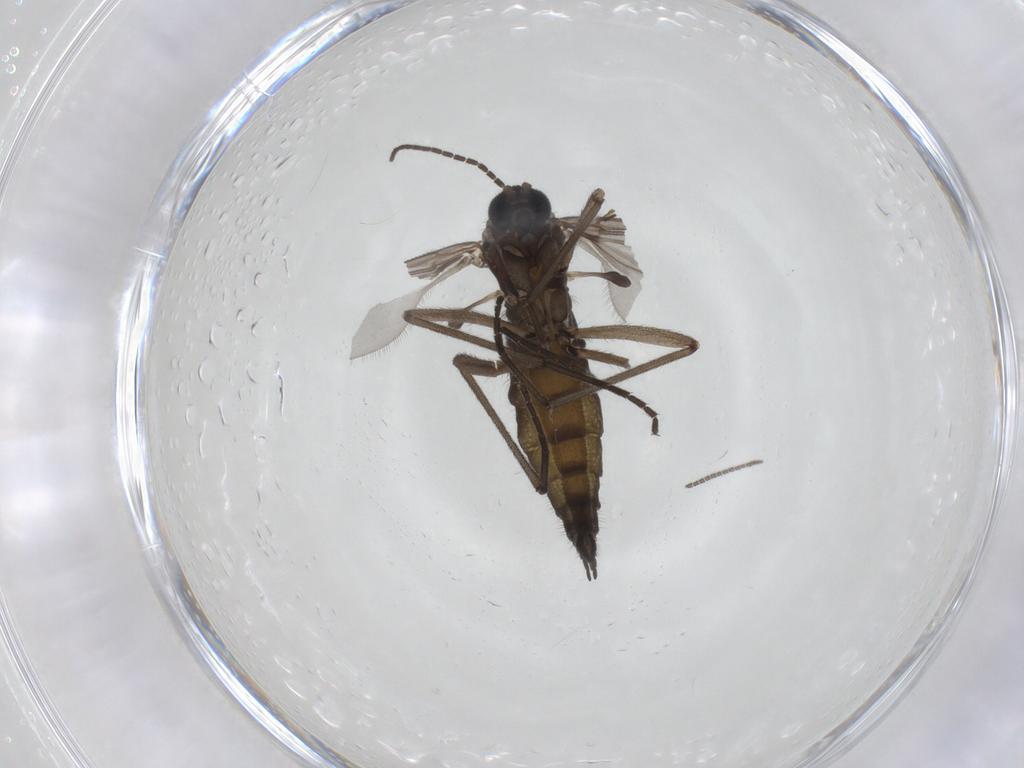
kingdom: Animalia
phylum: Arthropoda
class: Insecta
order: Diptera
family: Sciaridae
